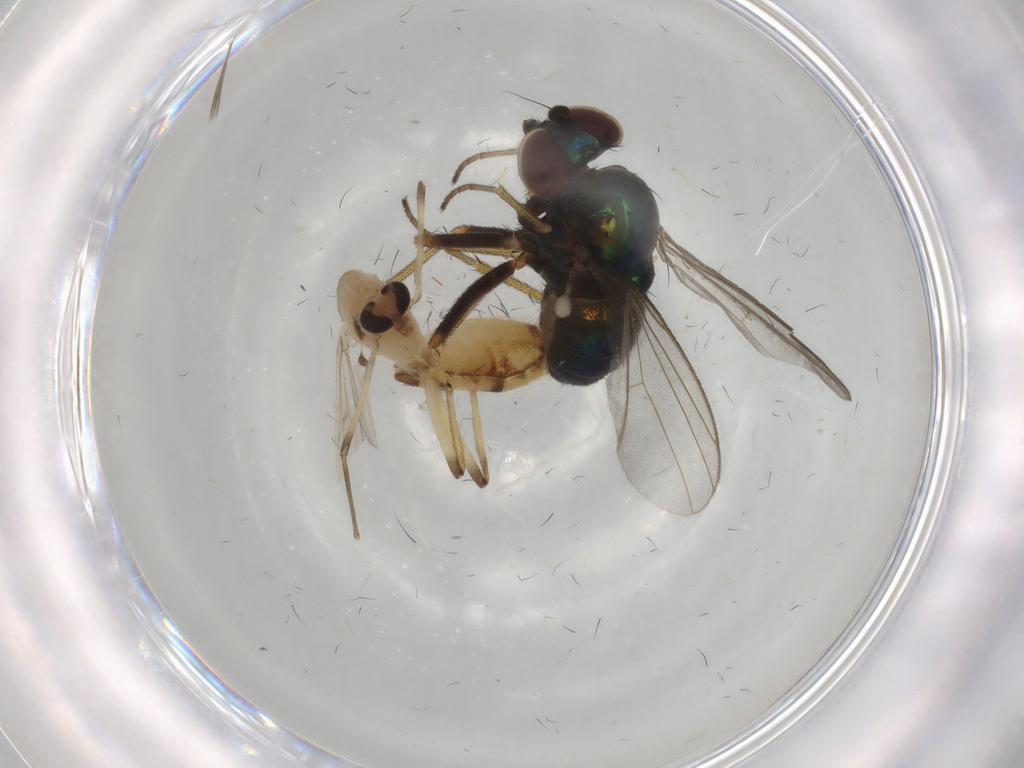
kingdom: Animalia
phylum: Arthropoda
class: Insecta
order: Diptera
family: Chironomidae
